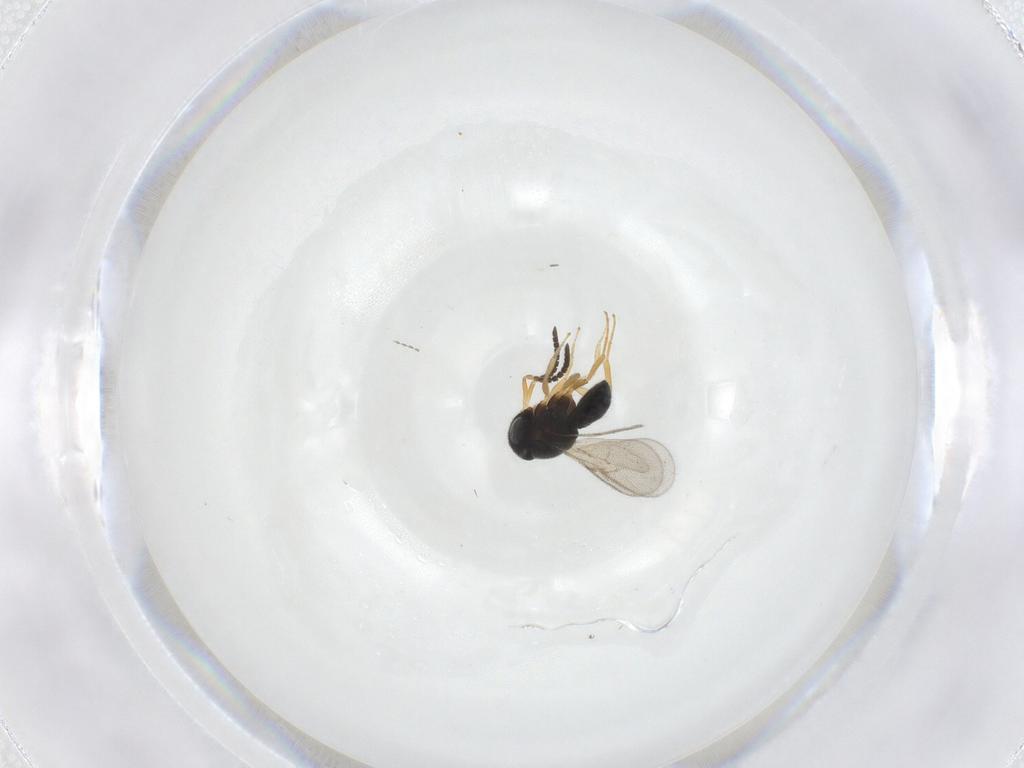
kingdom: Animalia
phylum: Arthropoda
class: Insecta
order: Hymenoptera
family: Scelionidae
